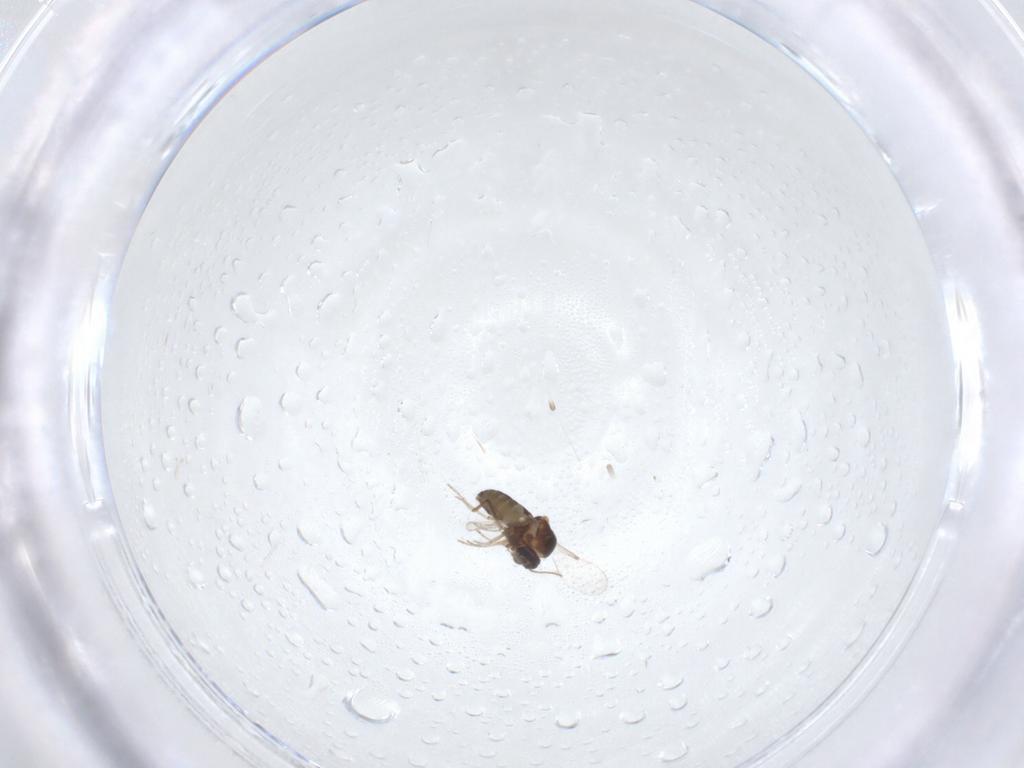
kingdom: Animalia
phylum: Arthropoda
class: Insecta
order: Diptera
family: Ceratopogonidae
